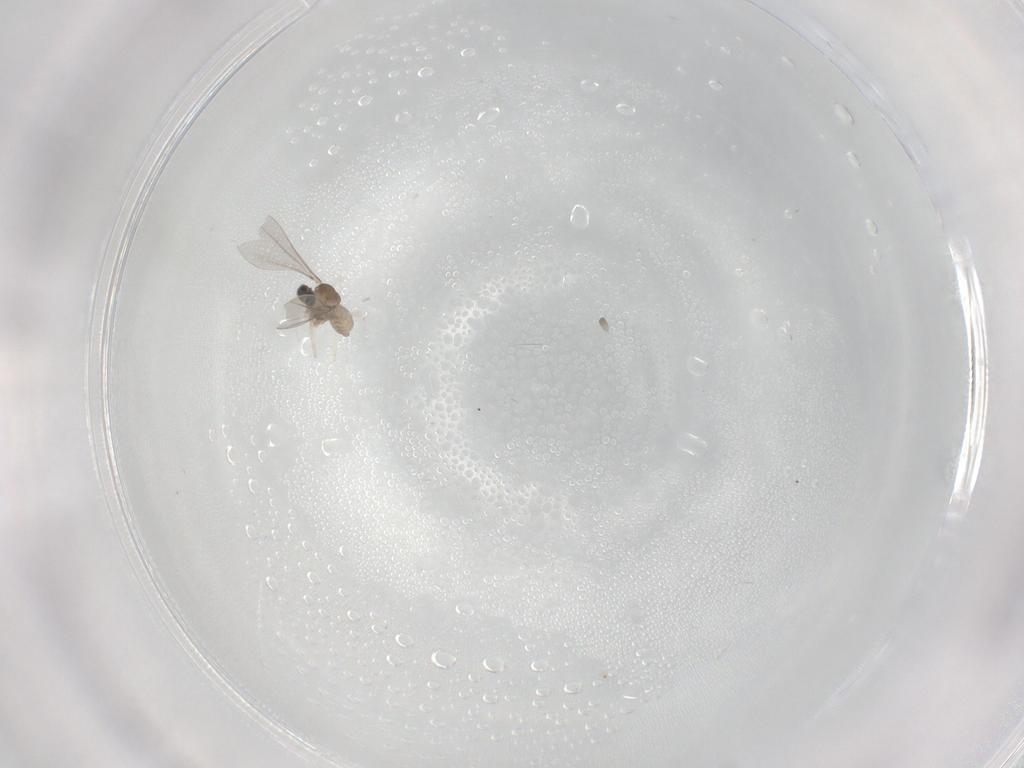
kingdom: Animalia
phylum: Arthropoda
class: Insecta
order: Diptera
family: Cecidomyiidae
